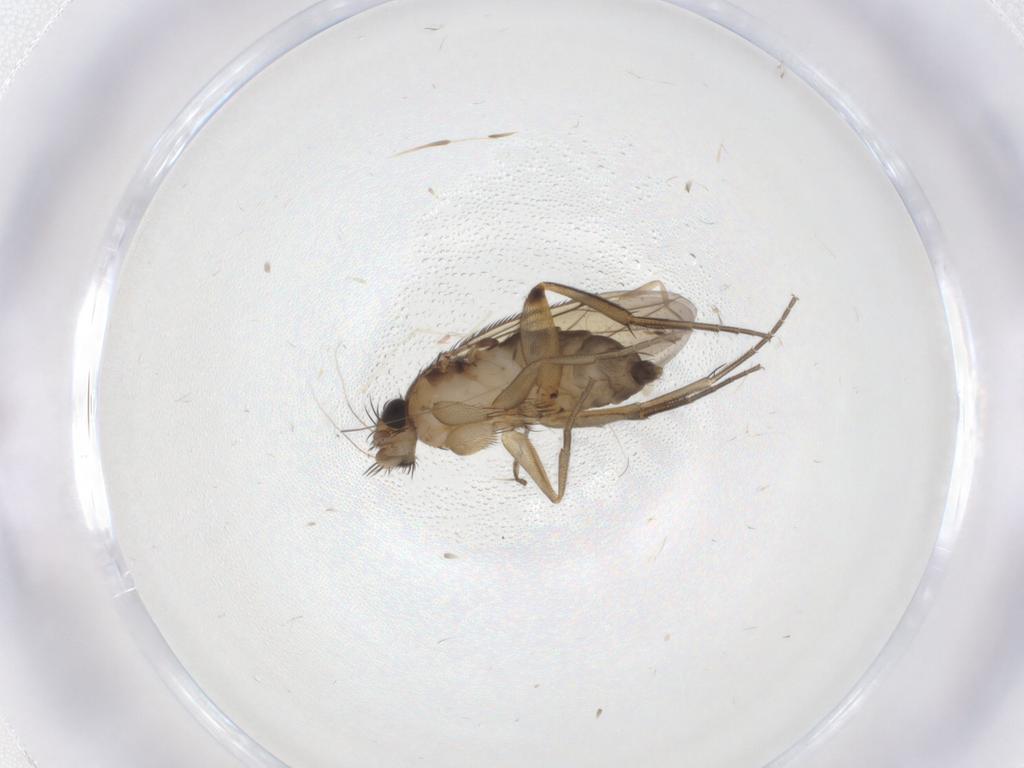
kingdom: Animalia
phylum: Arthropoda
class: Insecta
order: Diptera
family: Phoridae
